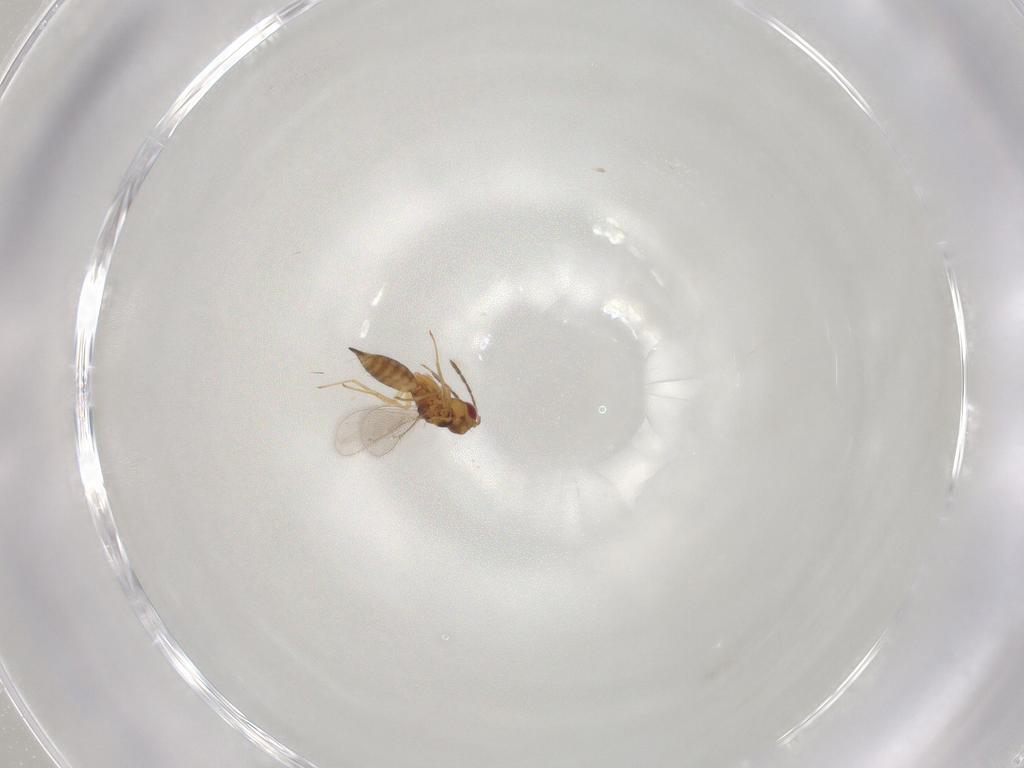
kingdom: Animalia
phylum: Arthropoda
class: Insecta
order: Hymenoptera
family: Eulophidae
